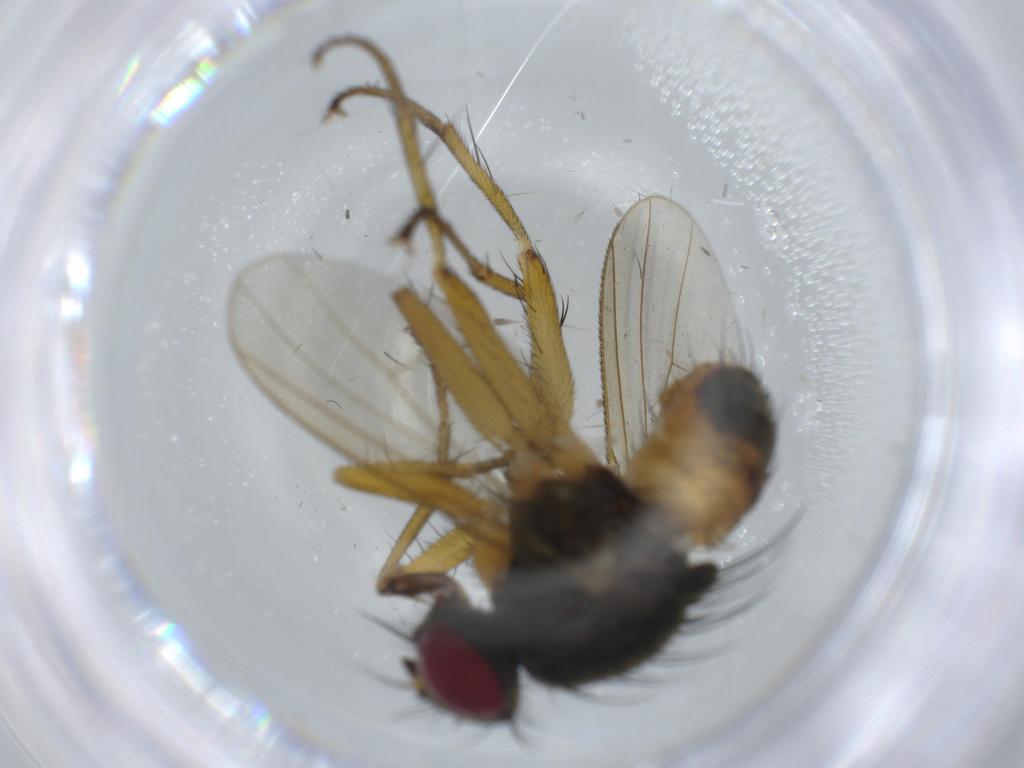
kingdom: Animalia
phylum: Arthropoda
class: Insecta
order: Diptera
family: Muscidae
